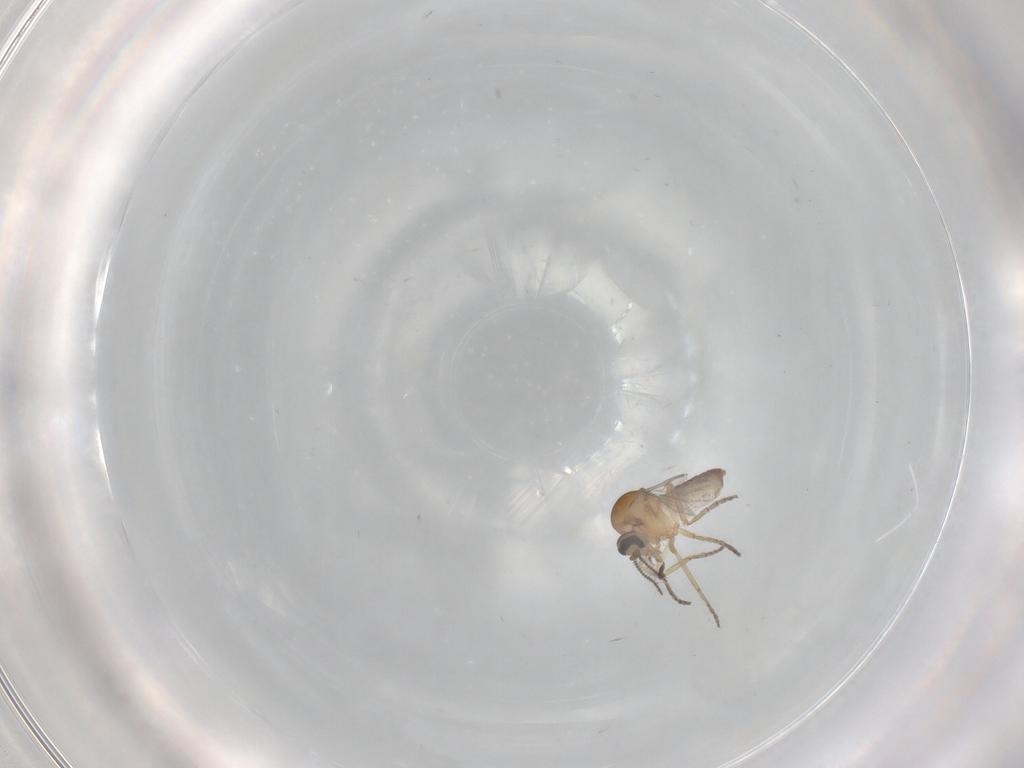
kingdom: Animalia
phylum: Arthropoda
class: Insecta
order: Diptera
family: Ceratopogonidae
